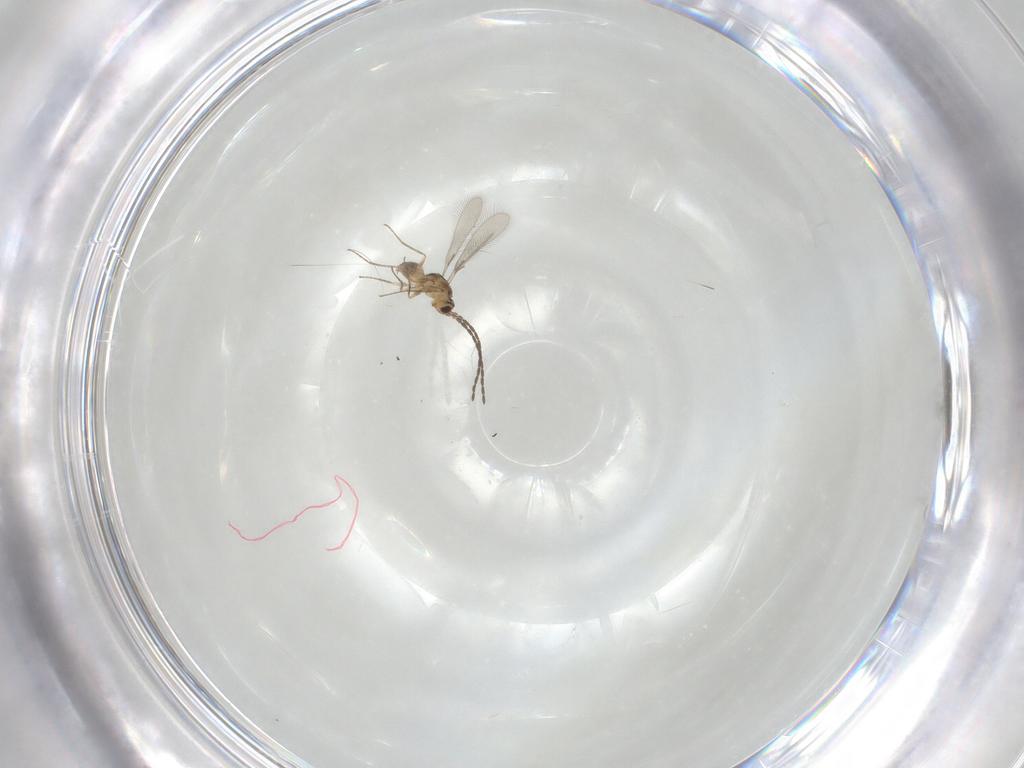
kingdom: Animalia
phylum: Arthropoda
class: Insecta
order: Hymenoptera
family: Mymaridae
